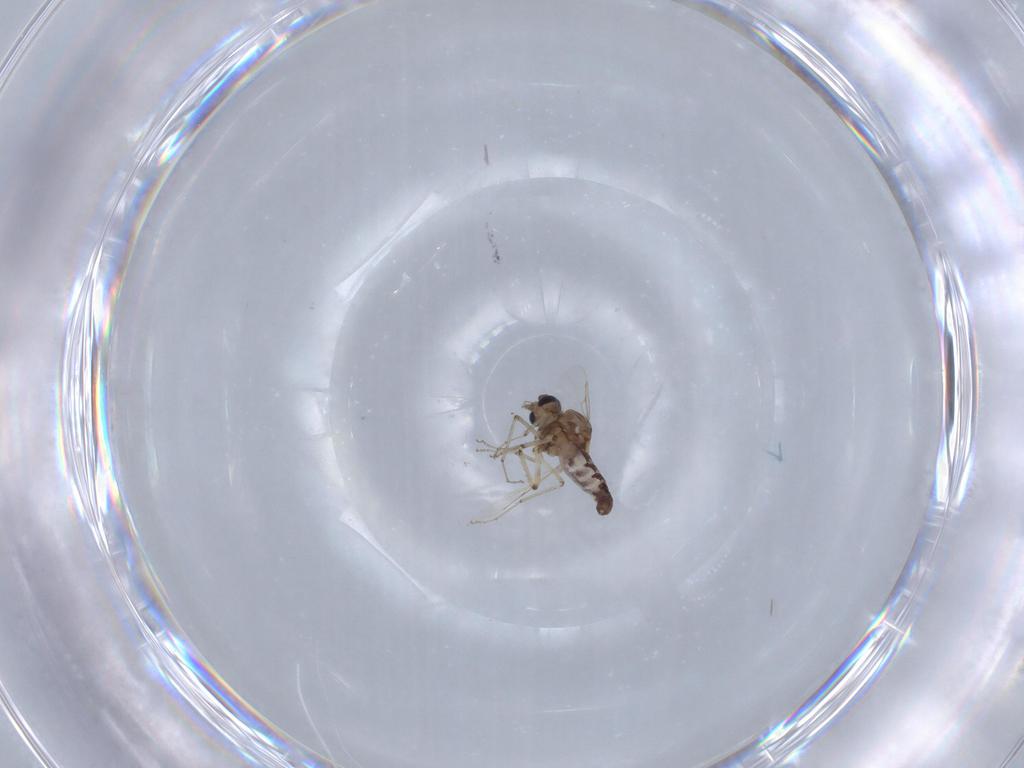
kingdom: Animalia
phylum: Arthropoda
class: Insecta
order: Diptera
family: Ceratopogonidae
